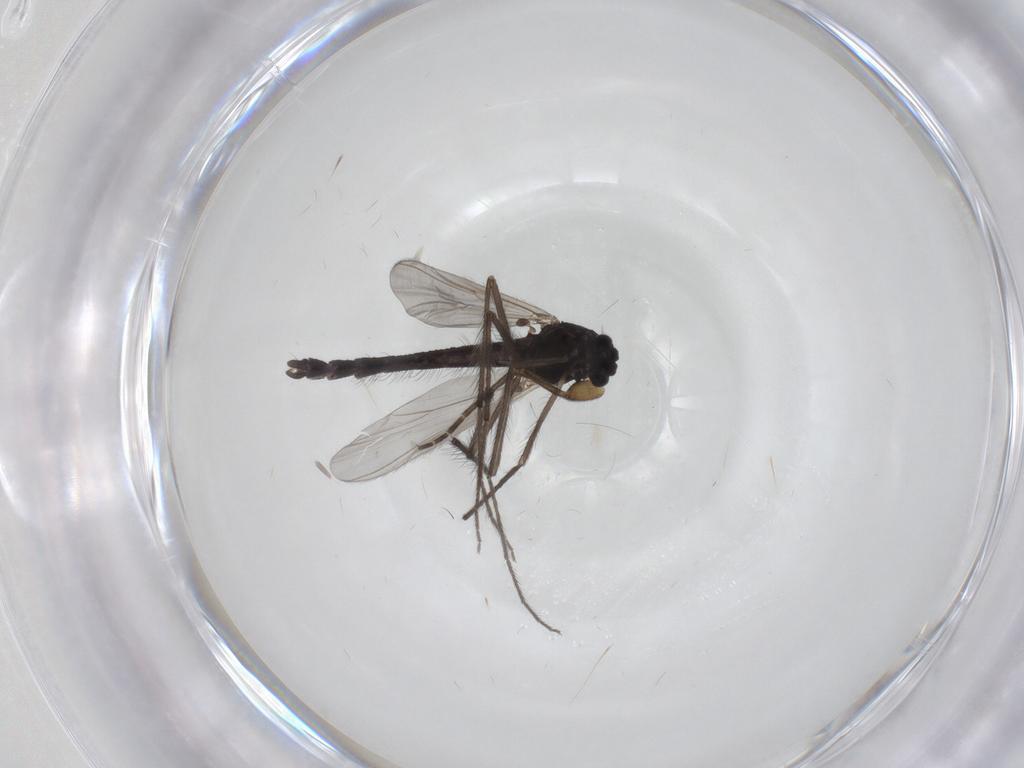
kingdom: Animalia
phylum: Arthropoda
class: Insecta
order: Diptera
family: Chironomidae
